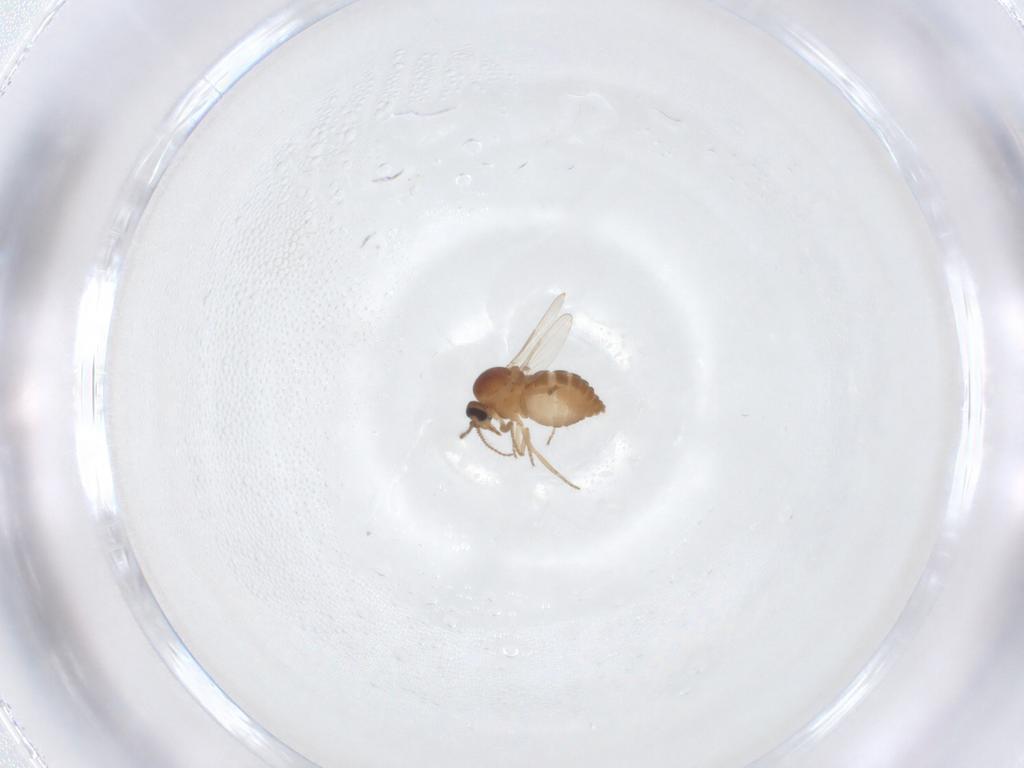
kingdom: Animalia
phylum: Arthropoda
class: Insecta
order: Diptera
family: Ceratopogonidae
